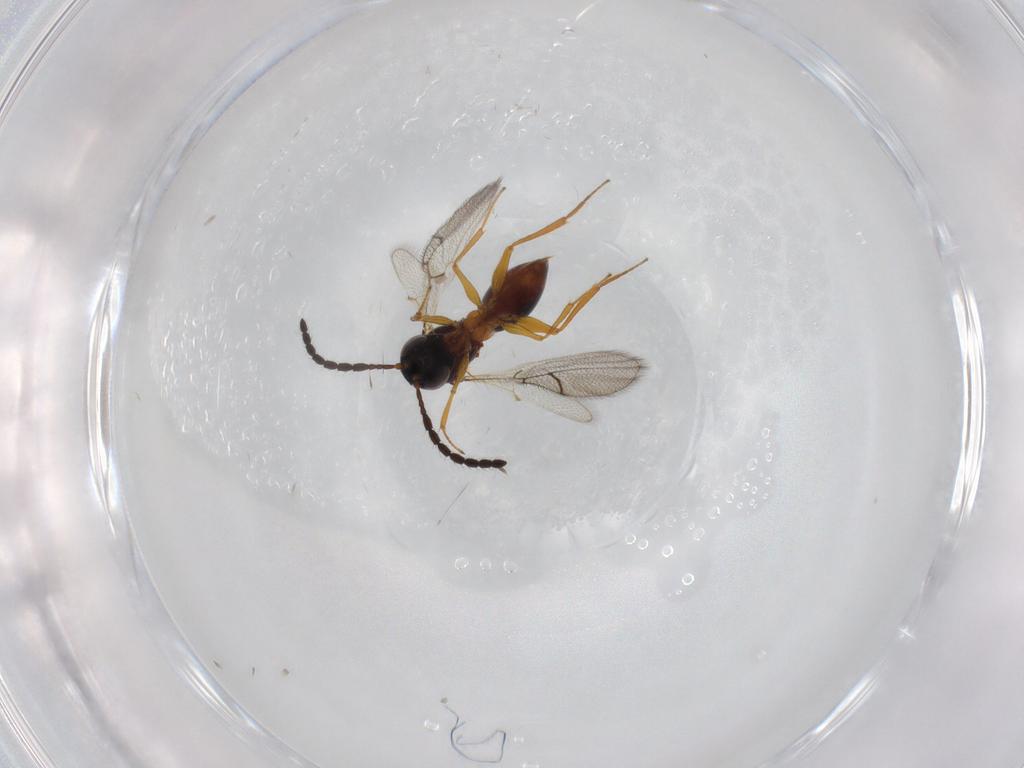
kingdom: Animalia
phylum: Arthropoda
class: Insecta
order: Hymenoptera
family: Figitidae
